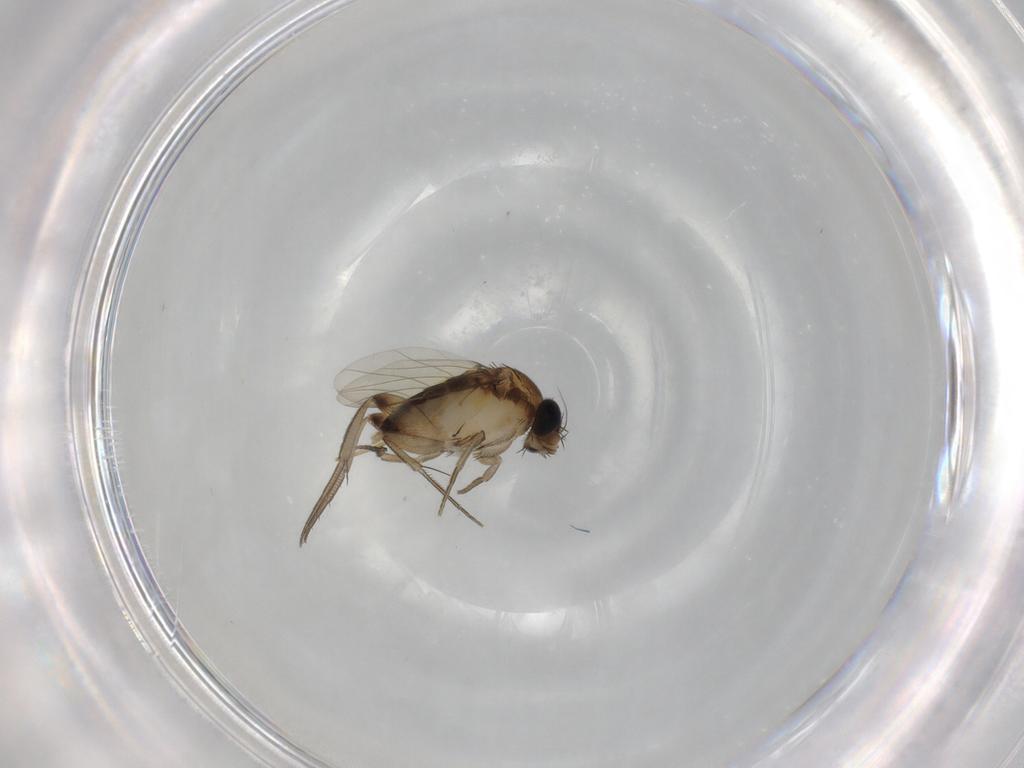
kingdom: Animalia
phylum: Arthropoda
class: Insecta
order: Diptera
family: Phoridae
